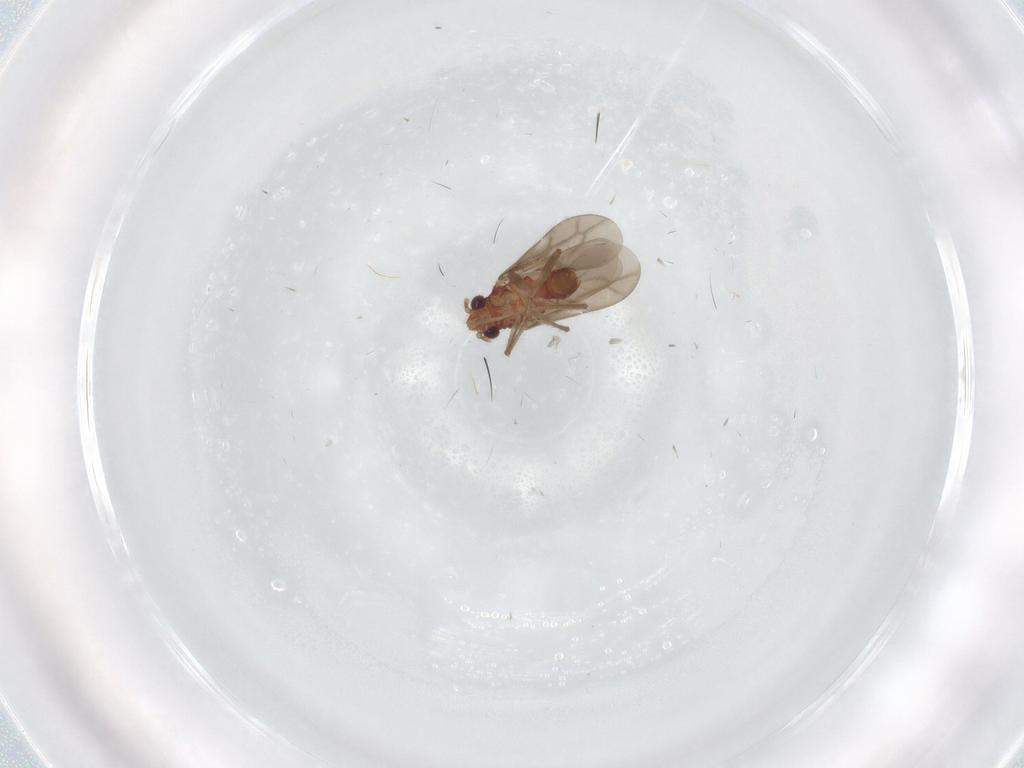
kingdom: Animalia
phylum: Arthropoda
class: Insecta
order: Hemiptera
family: Ceratocombidae
